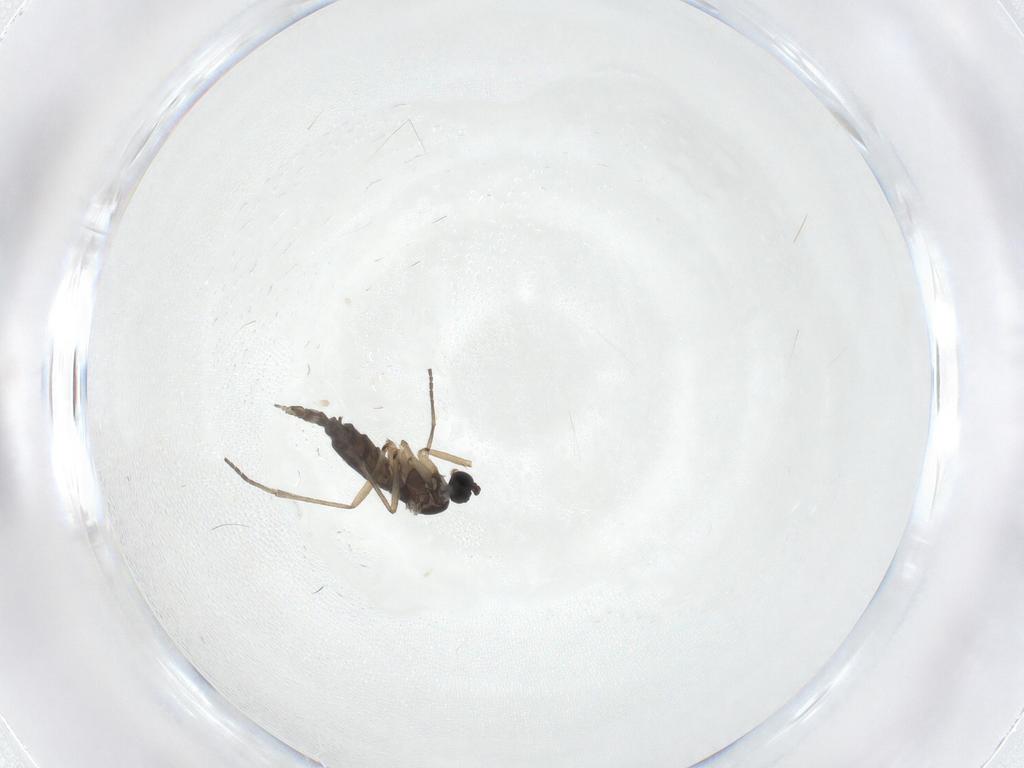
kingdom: Animalia
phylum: Arthropoda
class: Insecta
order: Diptera
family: Sciaridae
